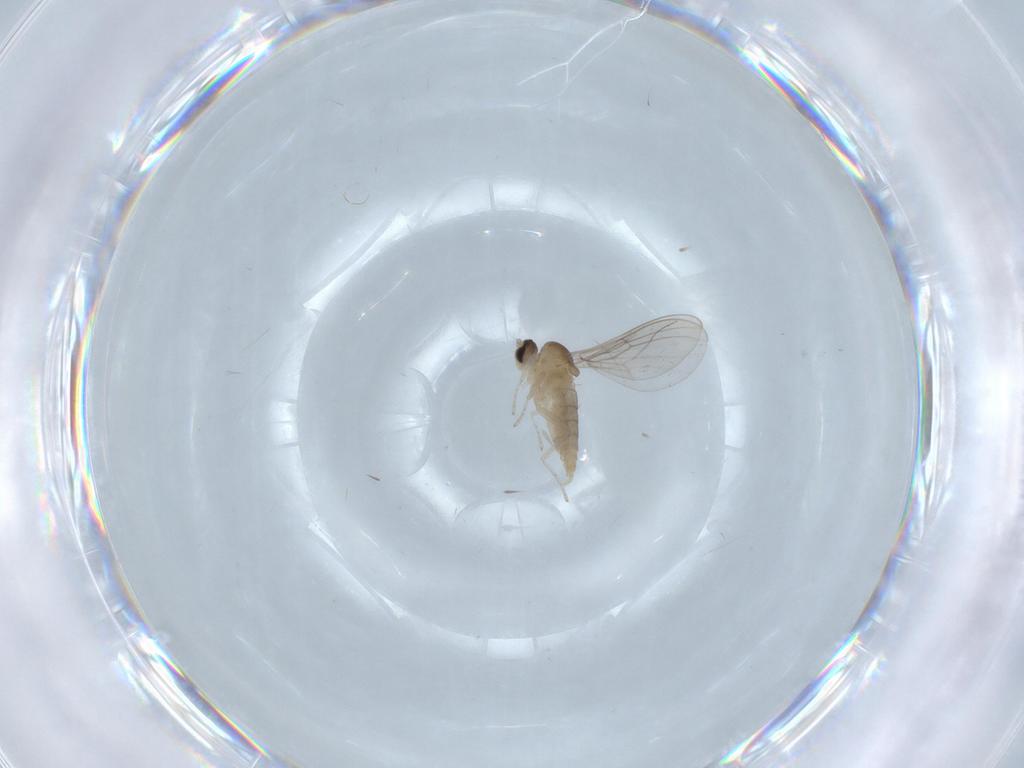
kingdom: Animalia
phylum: Arthropoda
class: Insecta
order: Diptera
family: Cecidomyiidae
